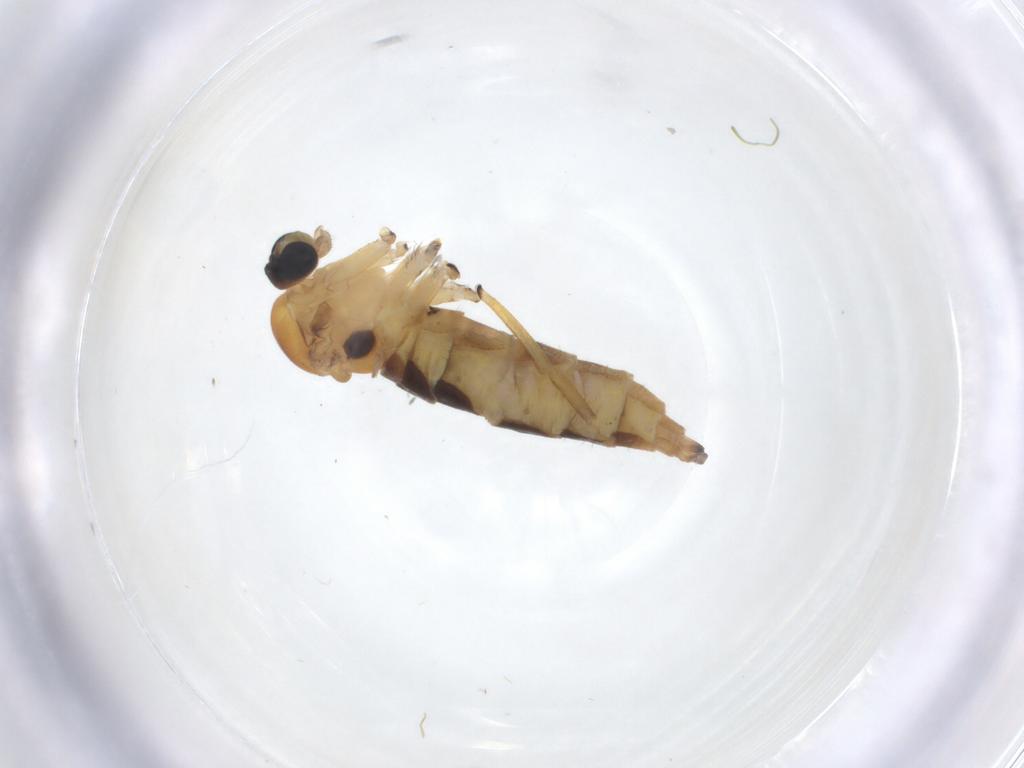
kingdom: Animalia
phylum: Arthropoda
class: Insecta
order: Diptera
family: Sciaridae
